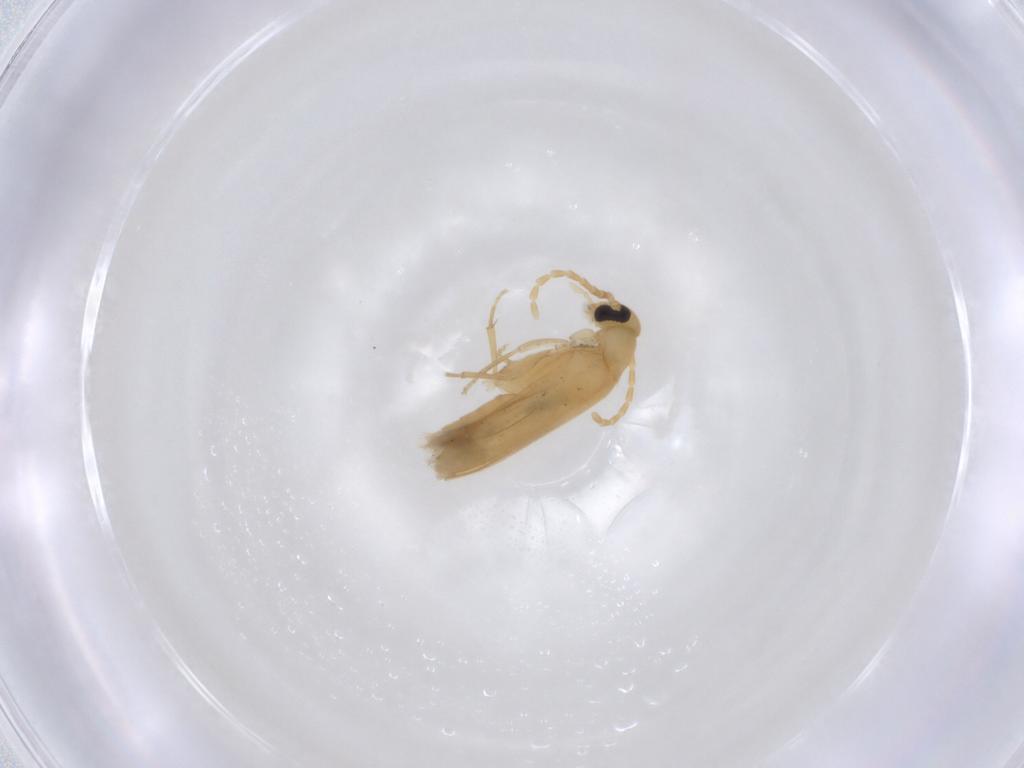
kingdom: Animalia
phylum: Arthropoda
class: Insecta
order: Coleoptera
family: Scraptiidae
